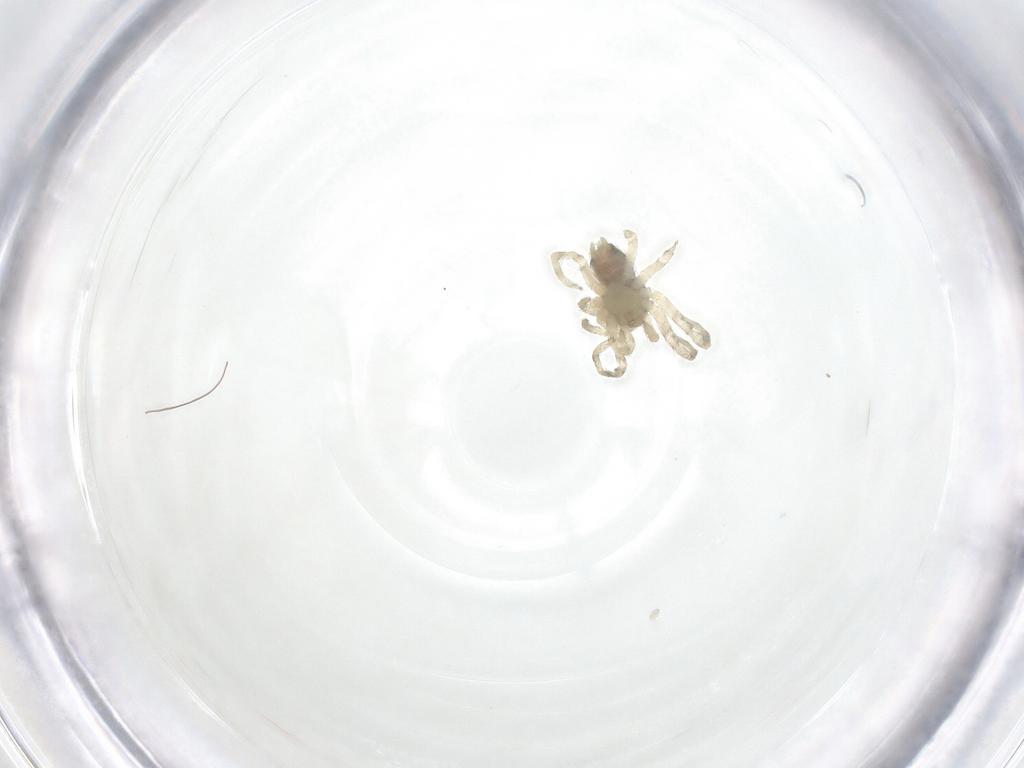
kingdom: Animalia
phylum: Arthropoda
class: Arachnida
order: Araneae
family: Oecobiidae
